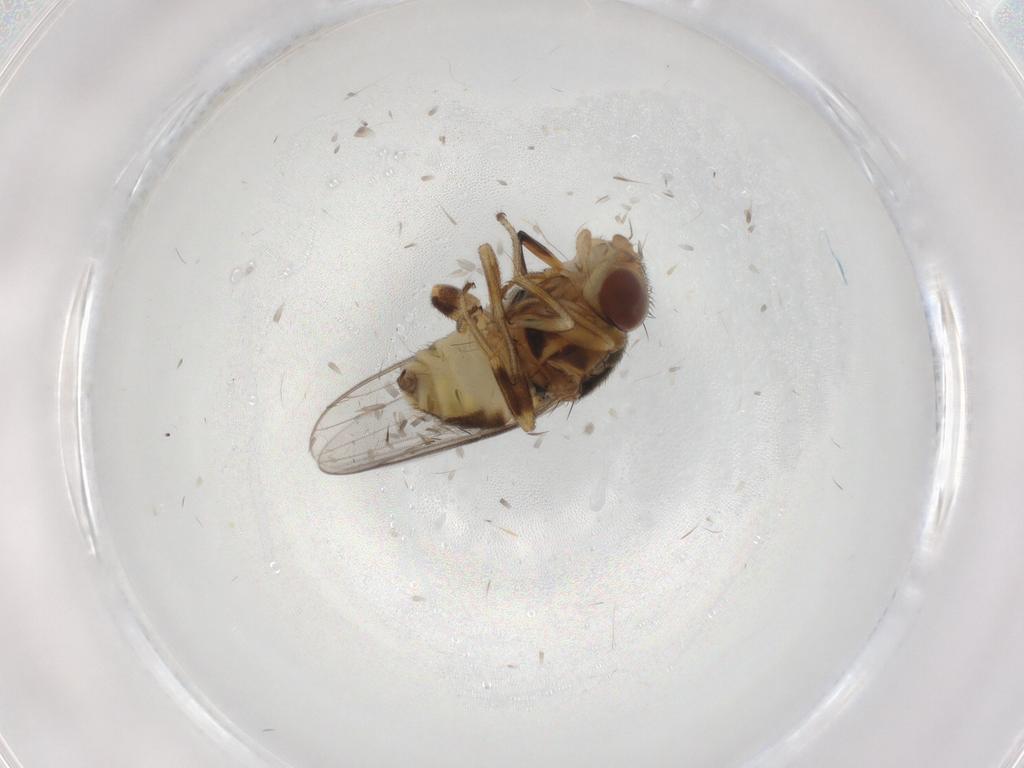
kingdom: Animalia
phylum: Arthropoda
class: Insecta
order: Diptera
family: Chloropidae
